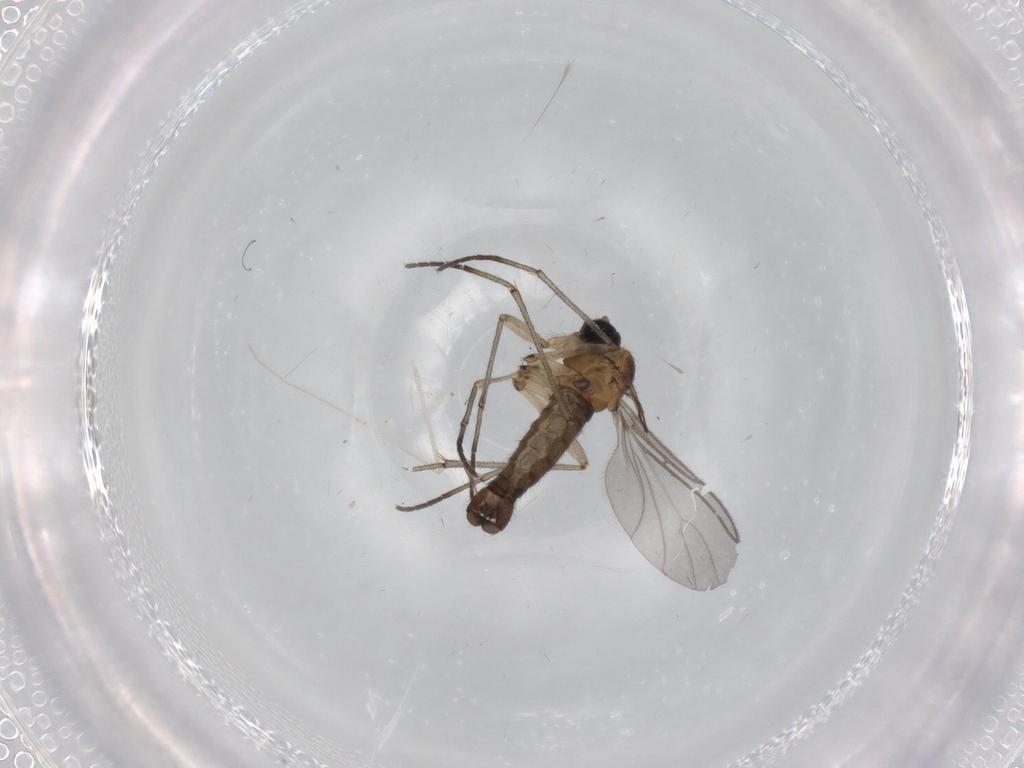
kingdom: Animalia
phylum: Arthropoda
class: Insecta
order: Diptera
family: Sciaridae
